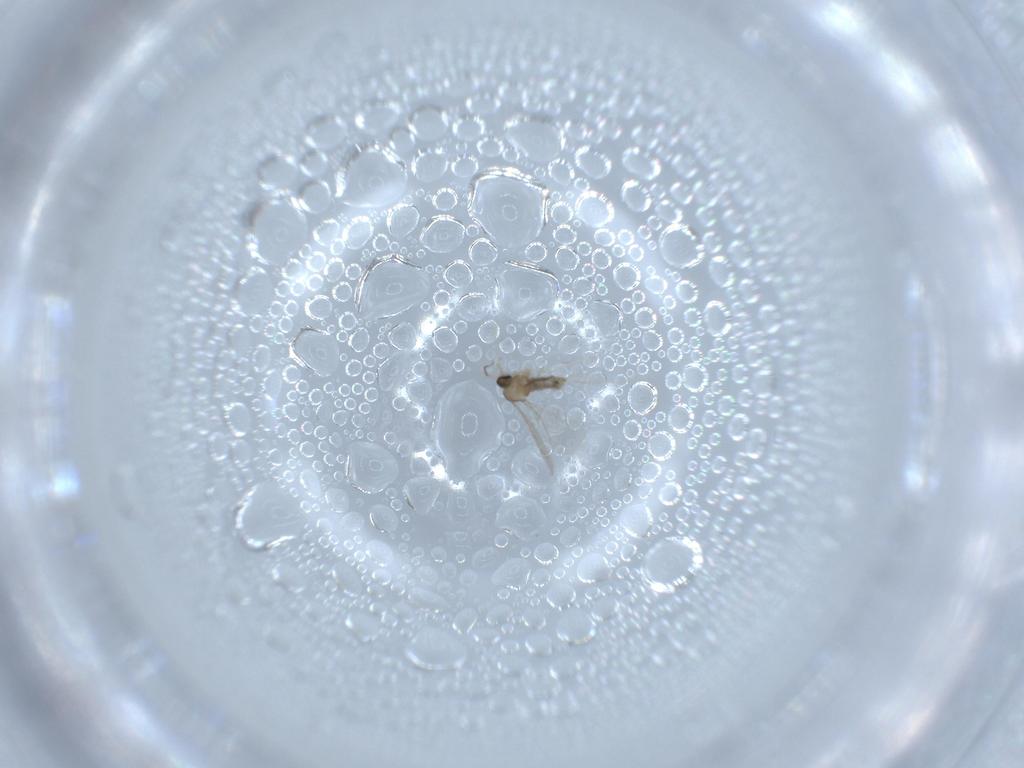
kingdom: Animalia
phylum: Arthropoda
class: Insecta
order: Diptera
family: Cecidomyiidae
